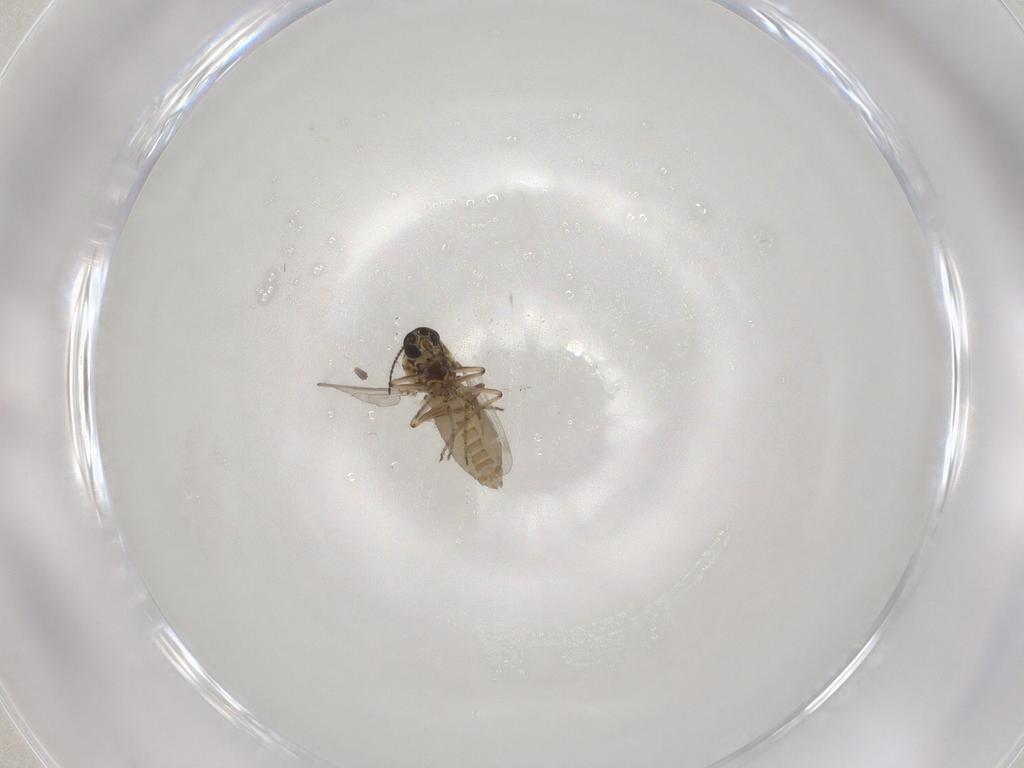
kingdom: Animalia
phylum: Arthropoda
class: Insecta
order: Diptera
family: Ceratopogonidae
